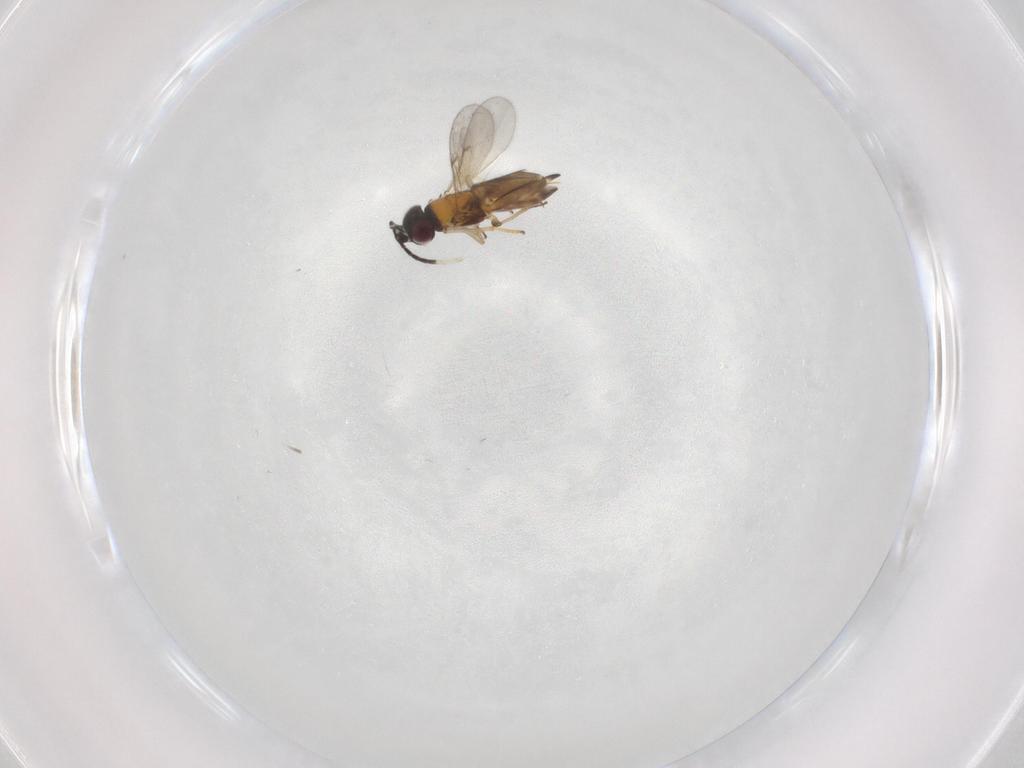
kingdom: Animalia
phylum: Arthropoda
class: Insecta
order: Hymenoptera
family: Encyrtidae
